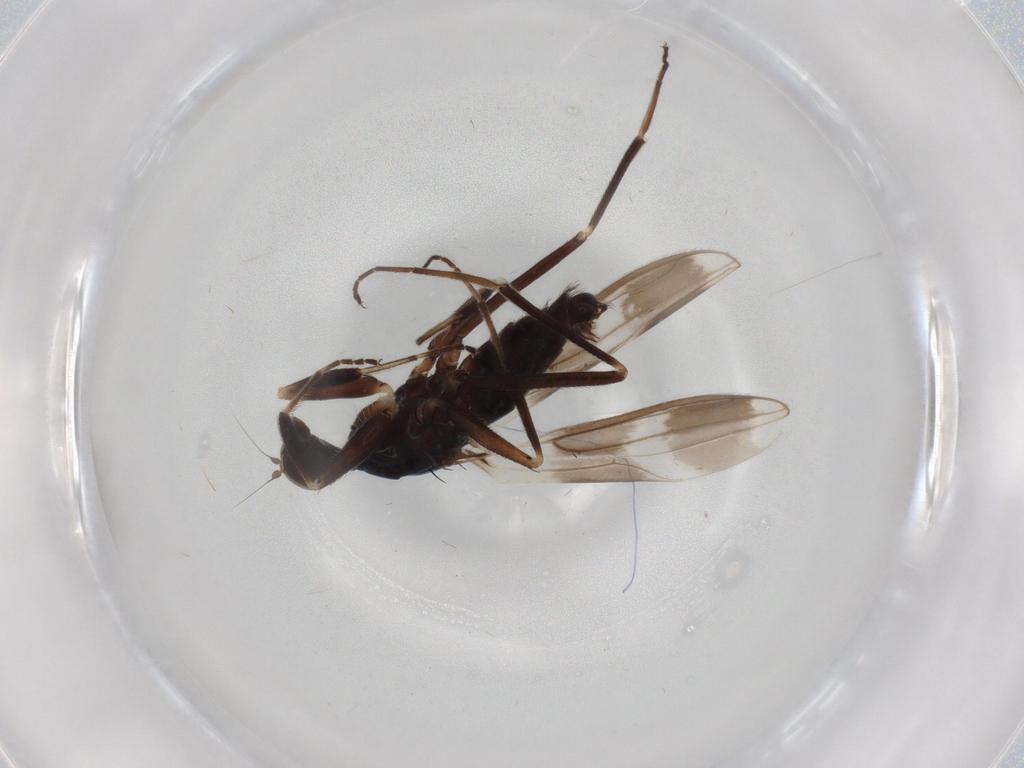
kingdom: Animalia
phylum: Arthropoda
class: Insecta
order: Diptera
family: Hybotidae
